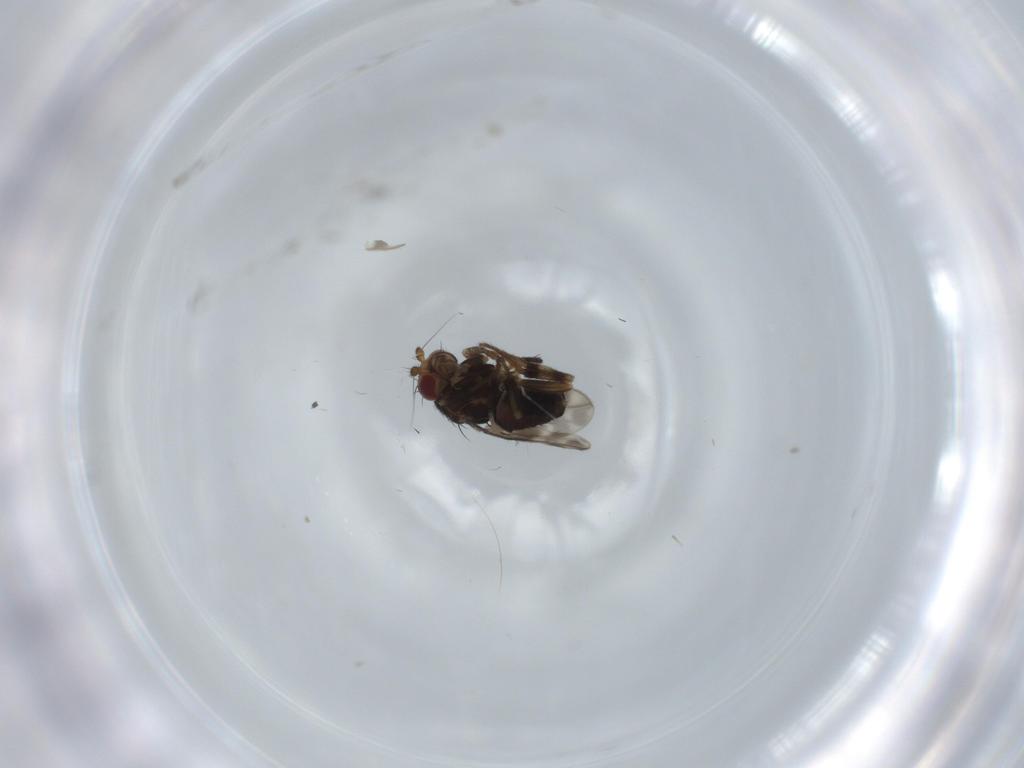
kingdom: Animalia
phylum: Arthropoda
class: Insecta
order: Diptera
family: Sphaeroceridae
